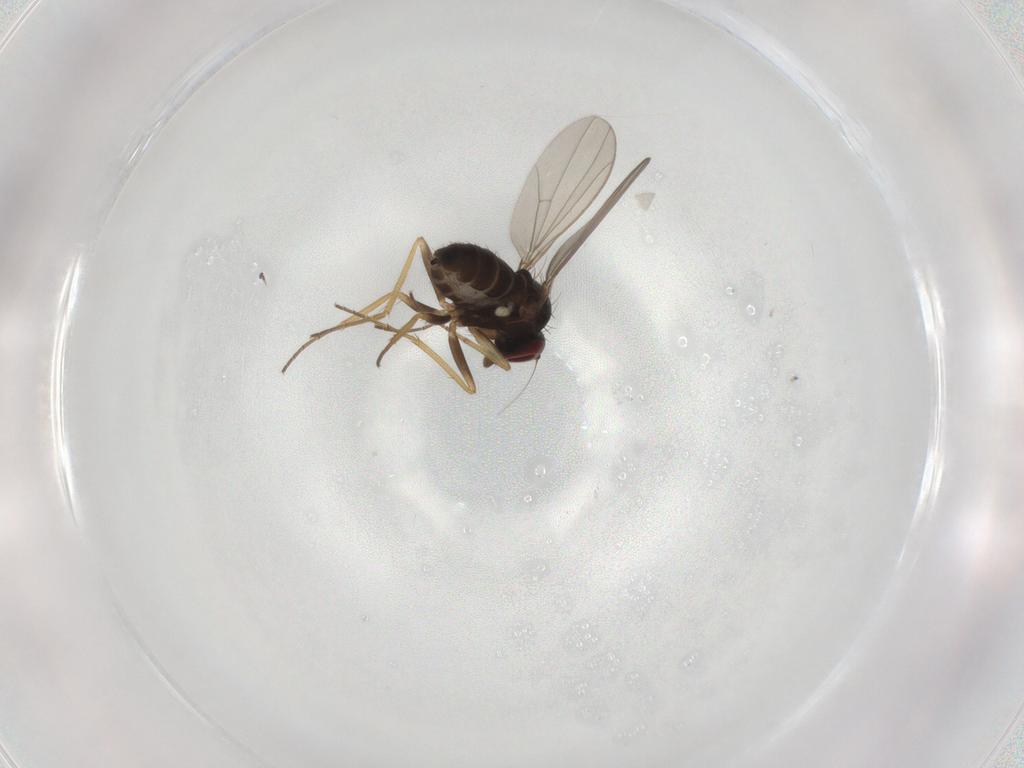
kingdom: Animalia
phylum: Arthropoda
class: Insecta
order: Diptera
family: Dolichopodidae
